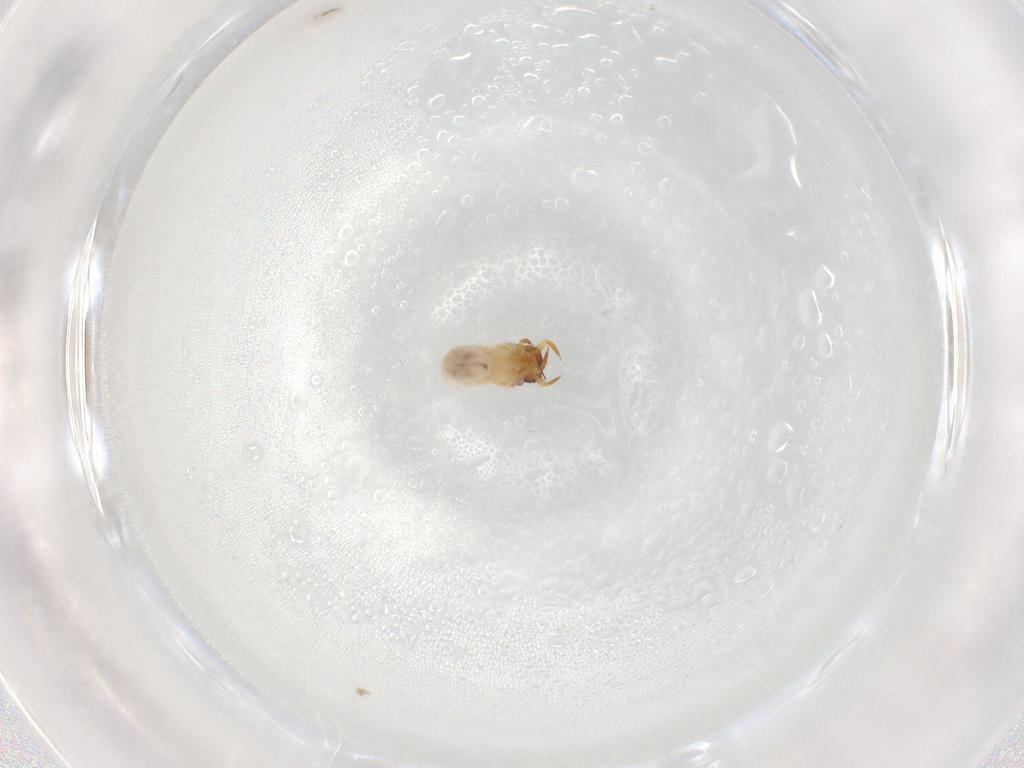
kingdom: Animalia
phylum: Arthropoda
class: Insecta
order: Coleoptera
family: Chrysomelidae
